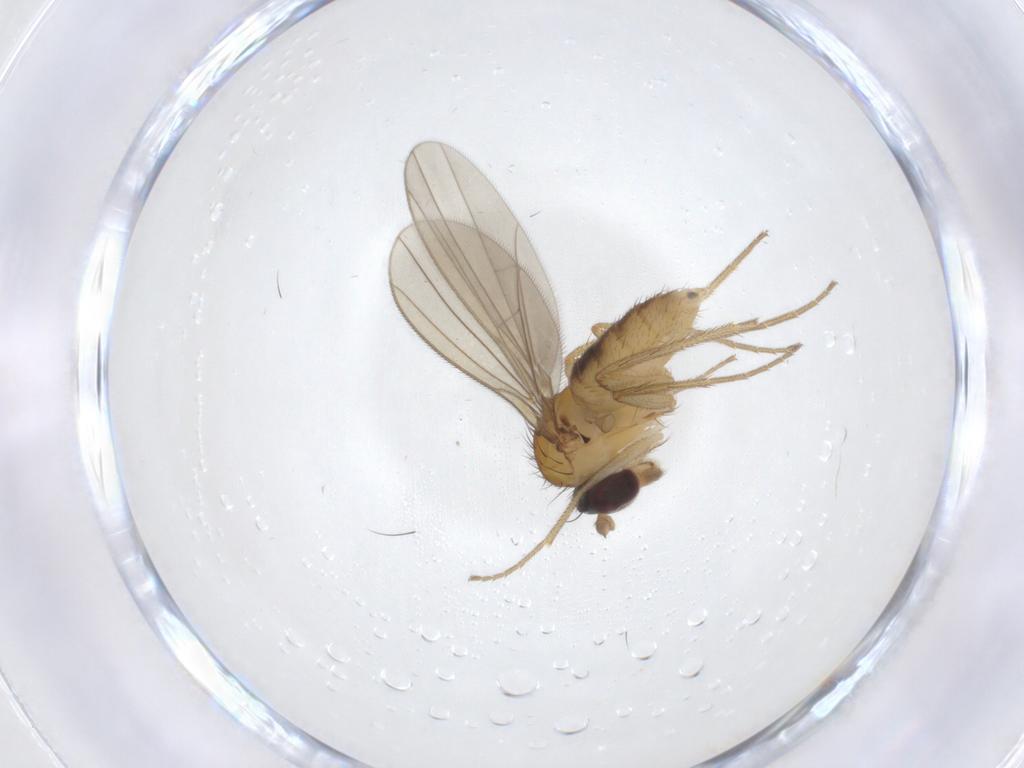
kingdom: Animalia
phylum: Arthropoda
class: Insecta
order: Diptera
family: Dolichopodidae
